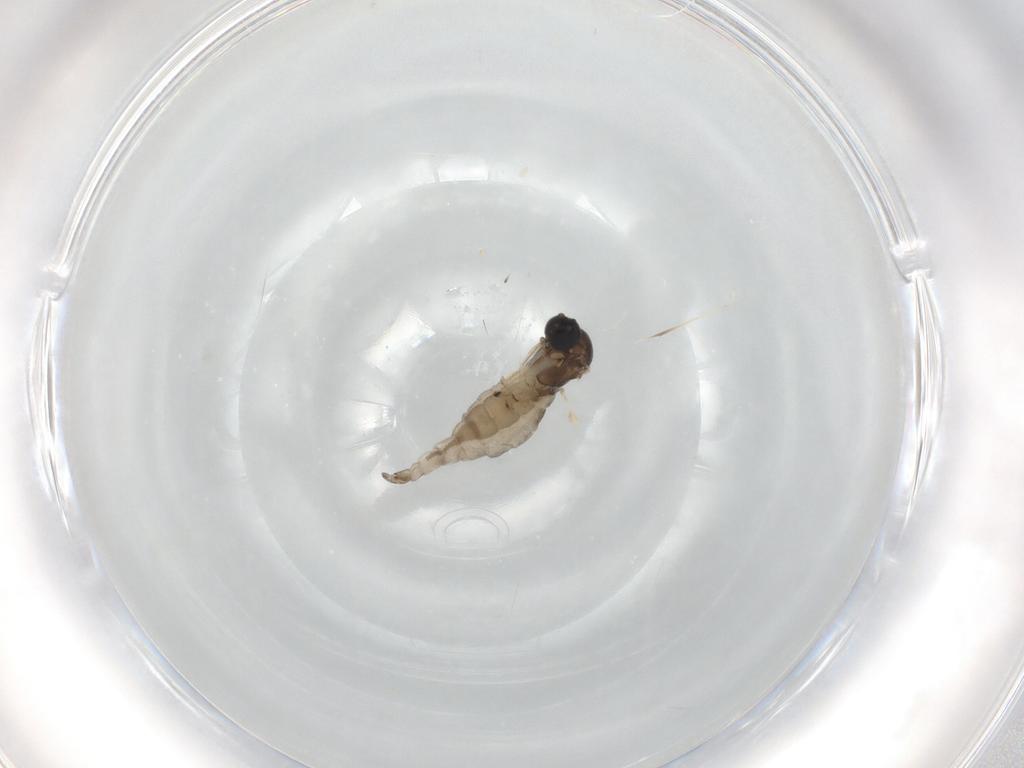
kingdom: Animalia
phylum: Arthropoda
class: Insecta
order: Diptera
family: Sciaridae
